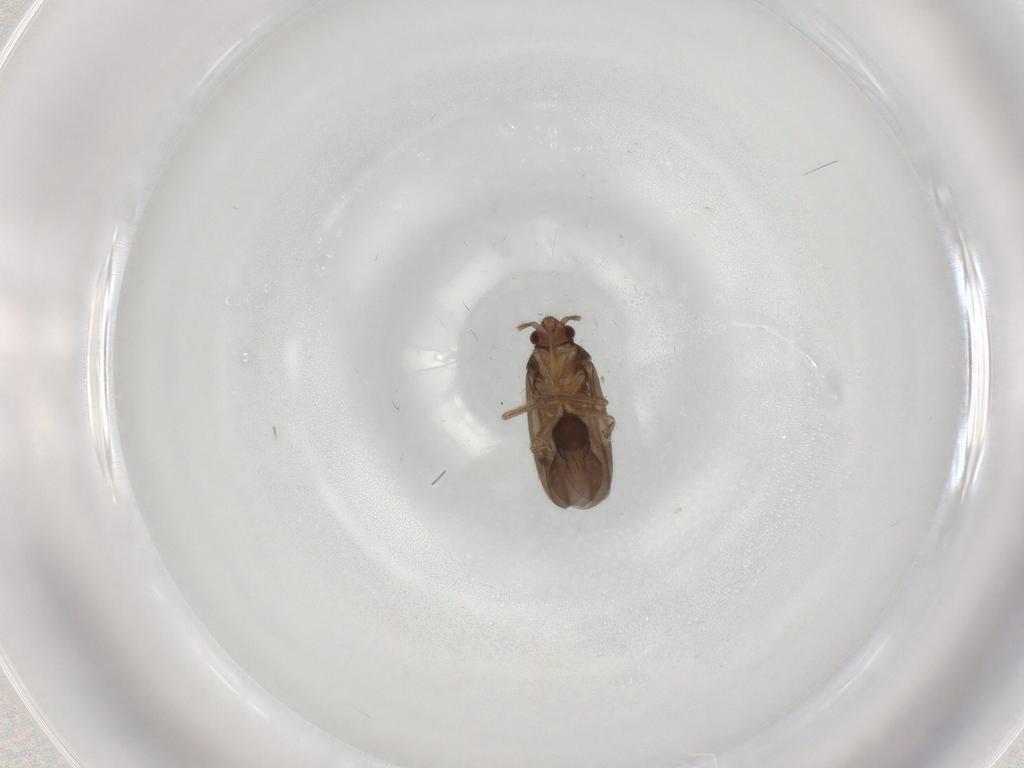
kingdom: Animalia
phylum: Arthropoda
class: Insecta
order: Hemiptera
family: Ceratocombidae
